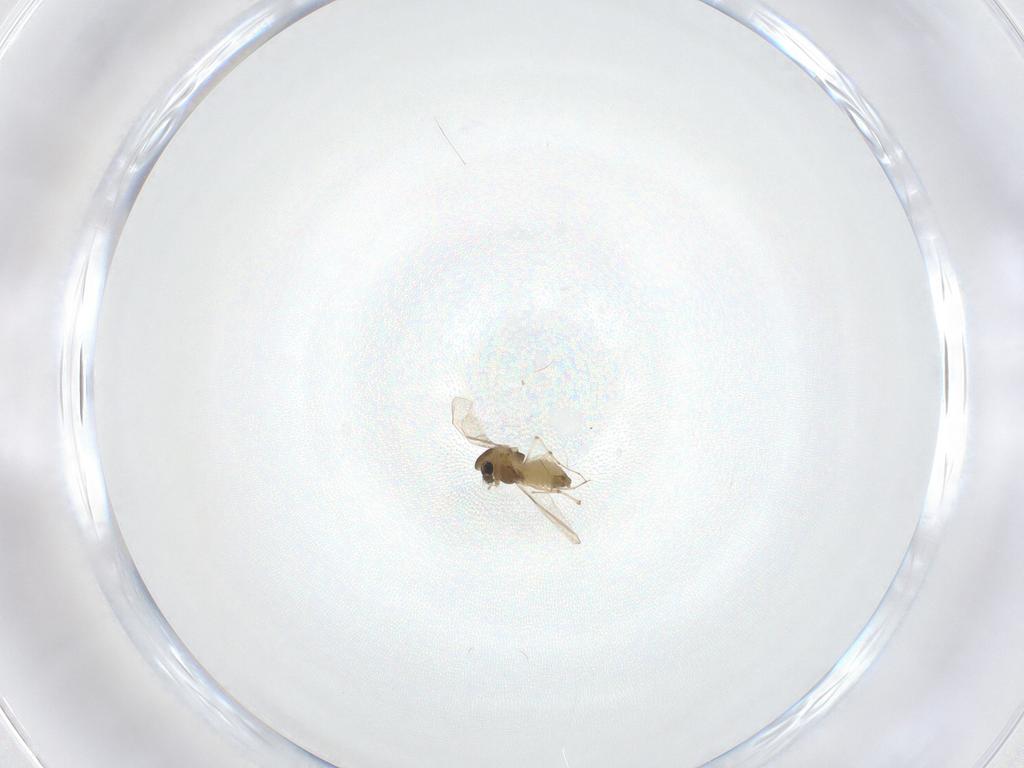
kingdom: Animalia
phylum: Arthropoda
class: Insecta
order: Diptera
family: Chironomidae
